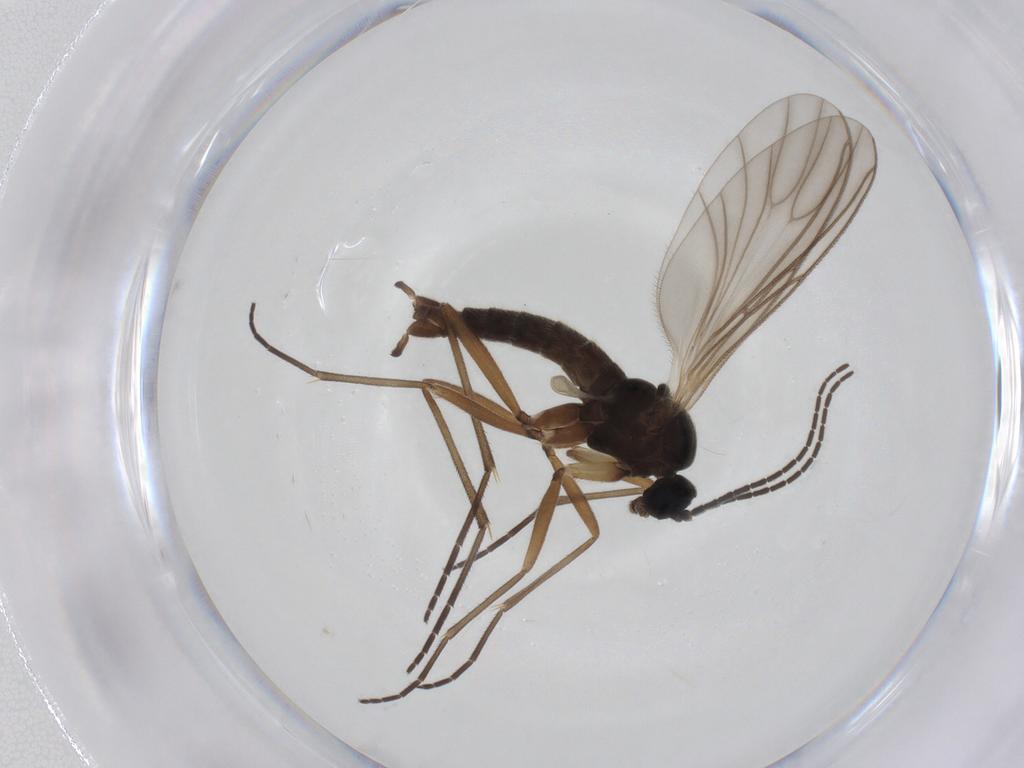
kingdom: Animalia
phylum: Arthropoda
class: Insecta
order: Diptera
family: Sciaridae
